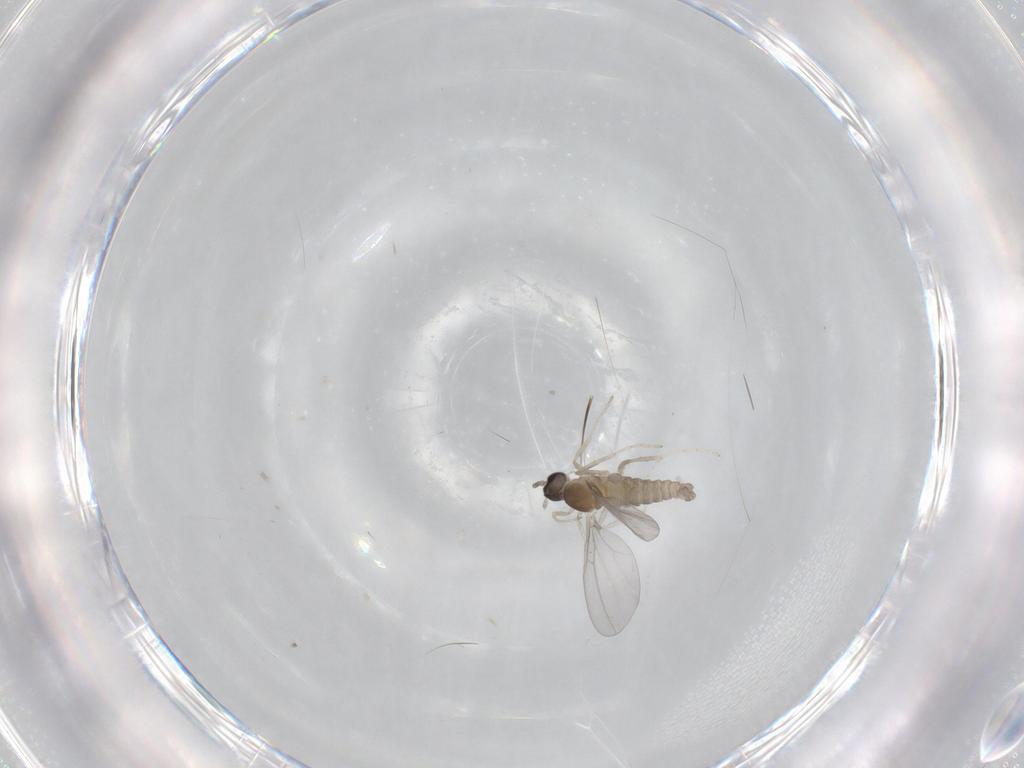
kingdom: Animalia
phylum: Arthropoda
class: Insecta
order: Diptera
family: Cecidomyiidae
